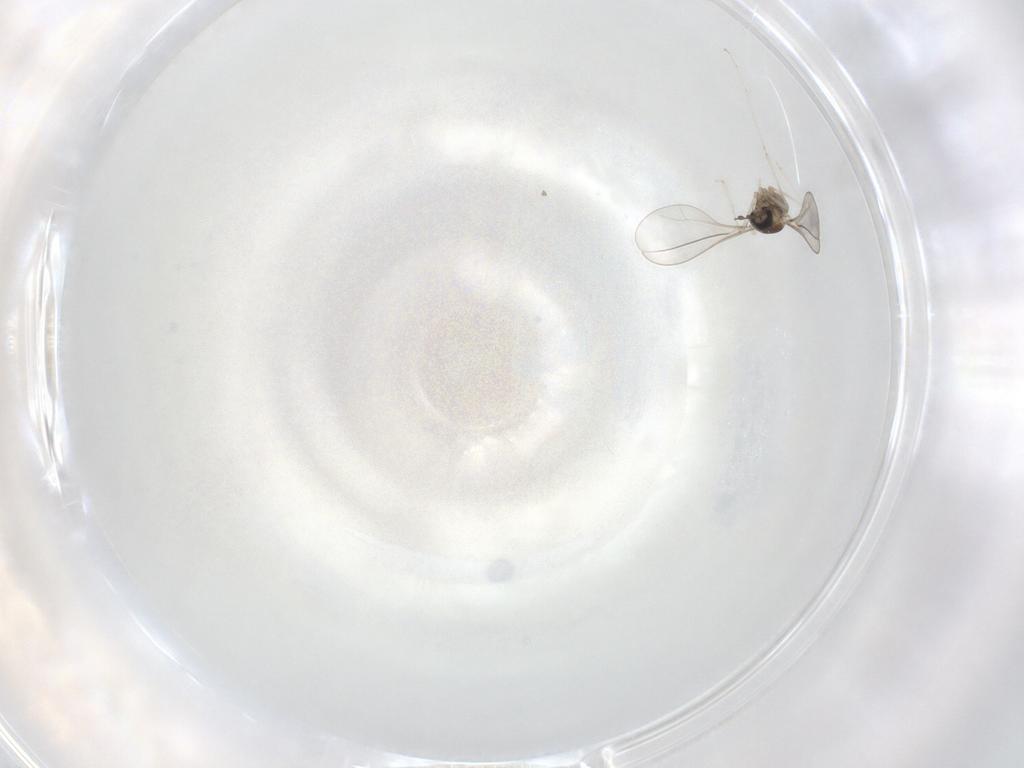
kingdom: Animalia
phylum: Arthropoda
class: Insecta
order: Diptera
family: Cecidomyiidae
